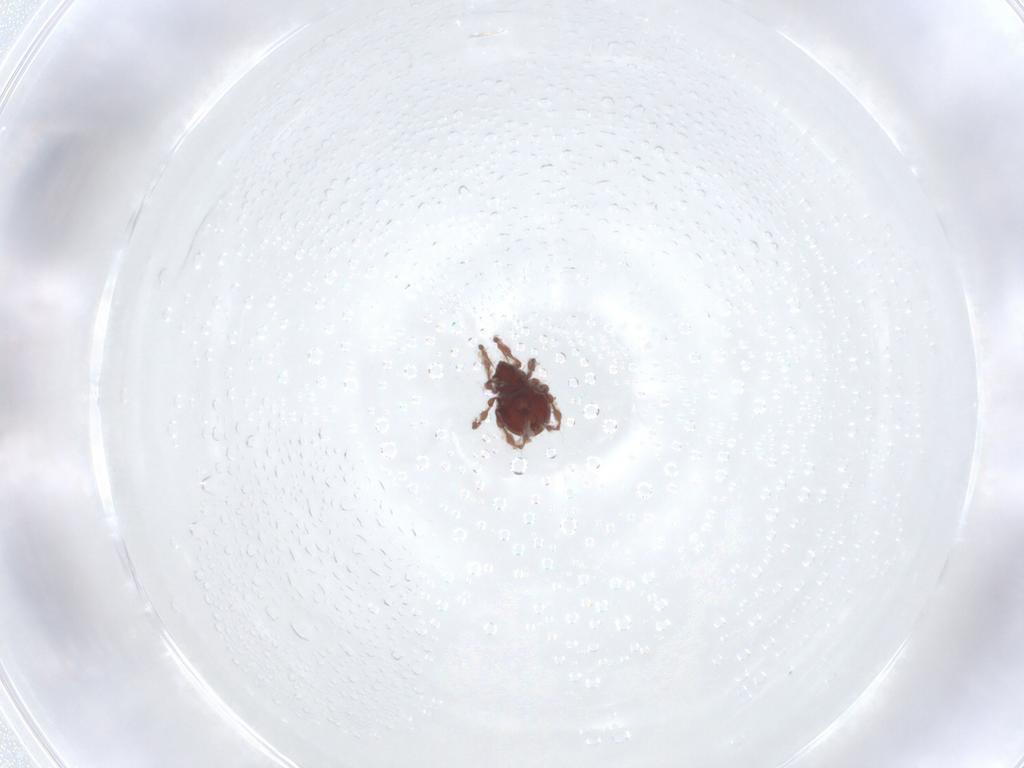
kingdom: Animalia
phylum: Arthropoda
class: Arachnida
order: Sarcoptiformes
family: Damaeidae
